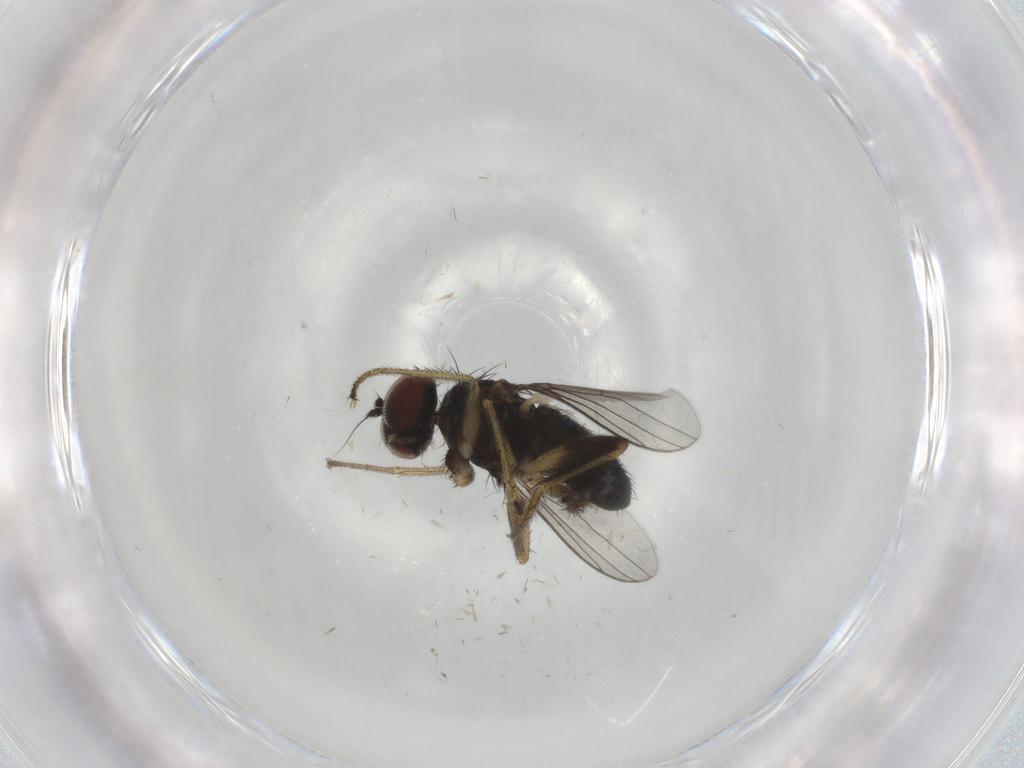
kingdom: Animalia
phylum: Arthropoda
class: Insecta
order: Diptera
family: Dolichopodidae
